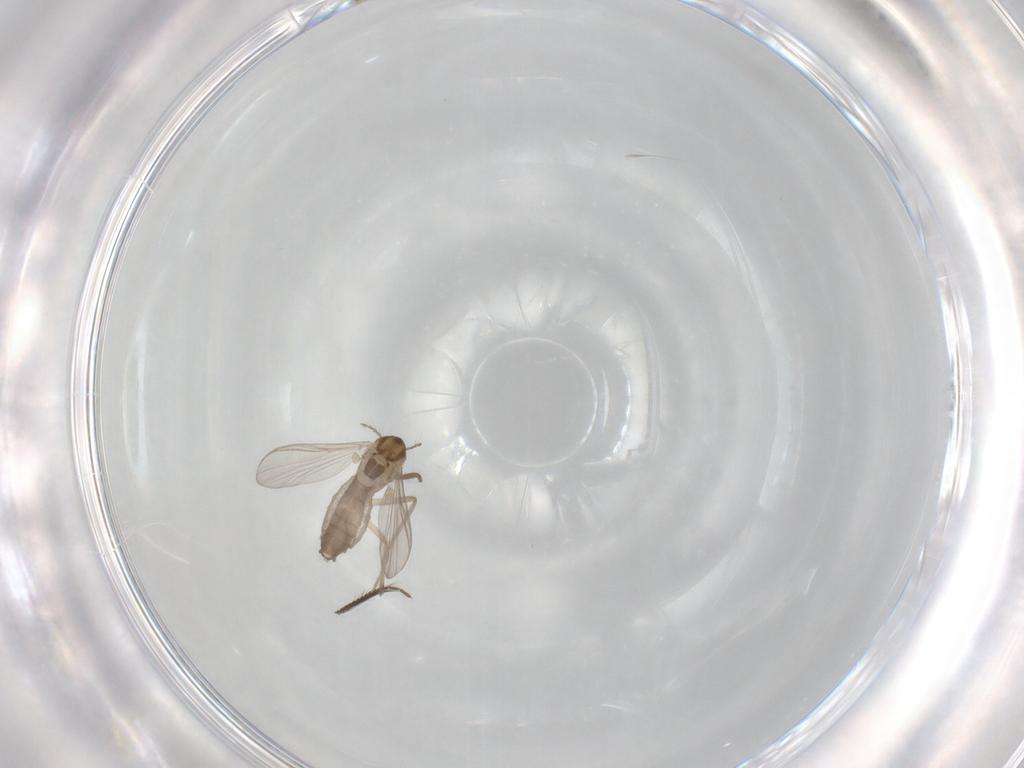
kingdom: Animalia
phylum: Arthropoda
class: Insecta
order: Diptera
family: Chironomidae
